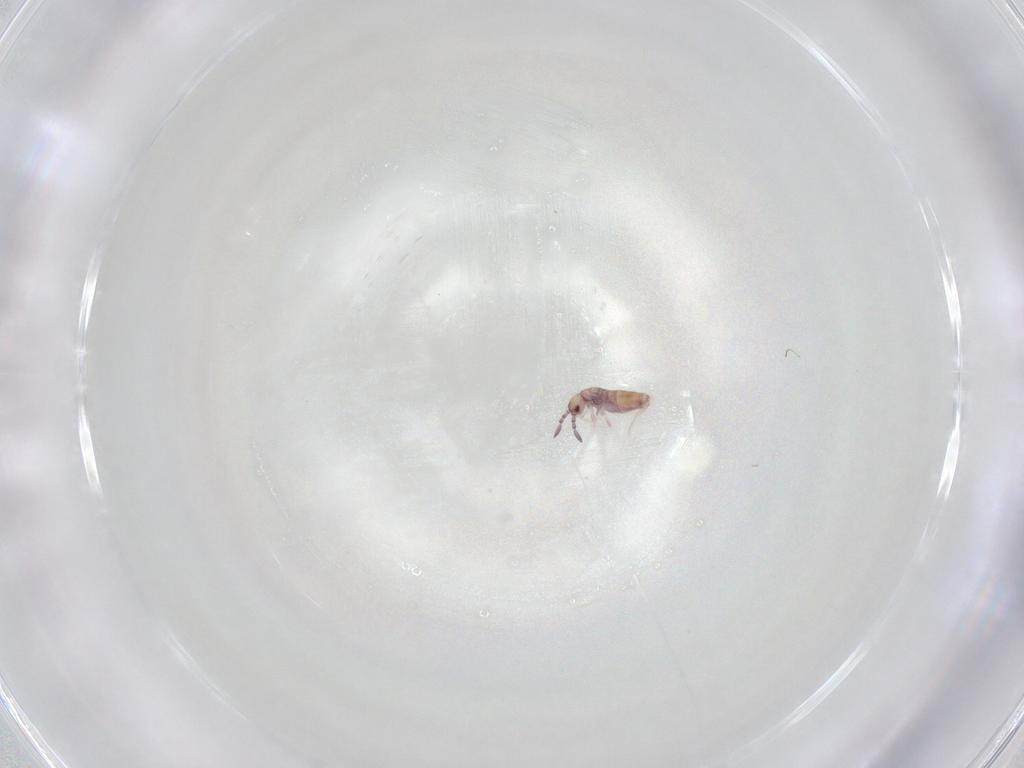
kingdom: Animalia
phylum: Arthropoda
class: Collembola
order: Entomobryomorpha
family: Entomobryidae
